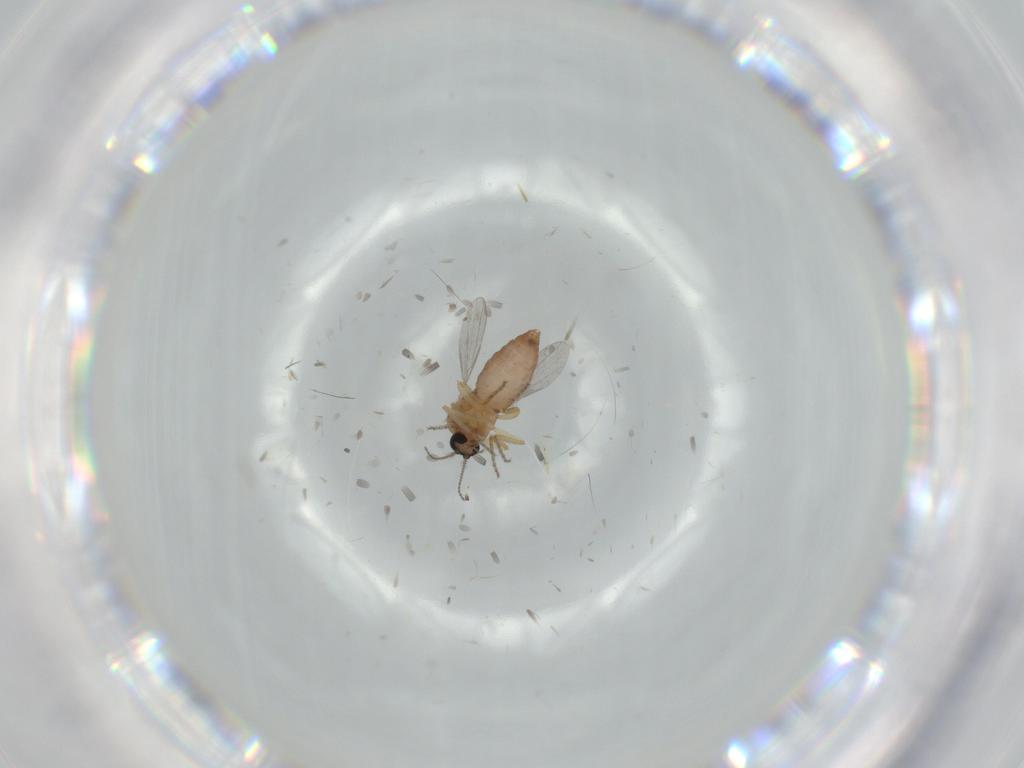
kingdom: Animalia
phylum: Arthropoda
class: Insecta
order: Diptera
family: Ceratopogonidae
